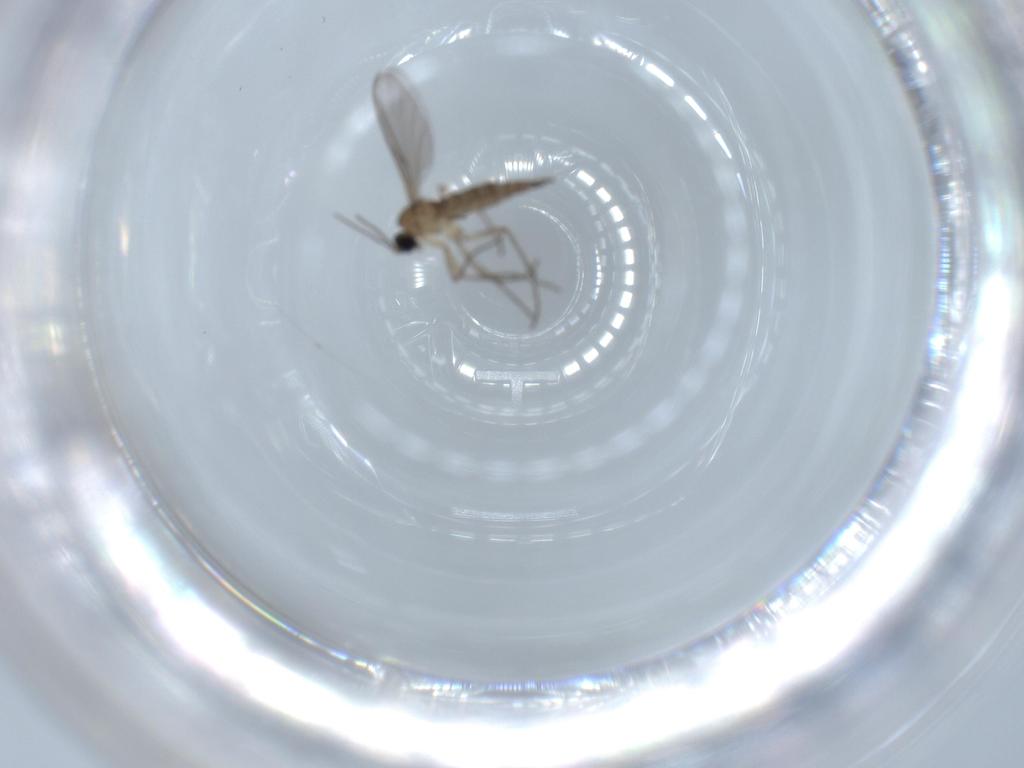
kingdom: Animalia
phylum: Arthropoda
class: Insecta
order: Diptera
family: Sciaridae
